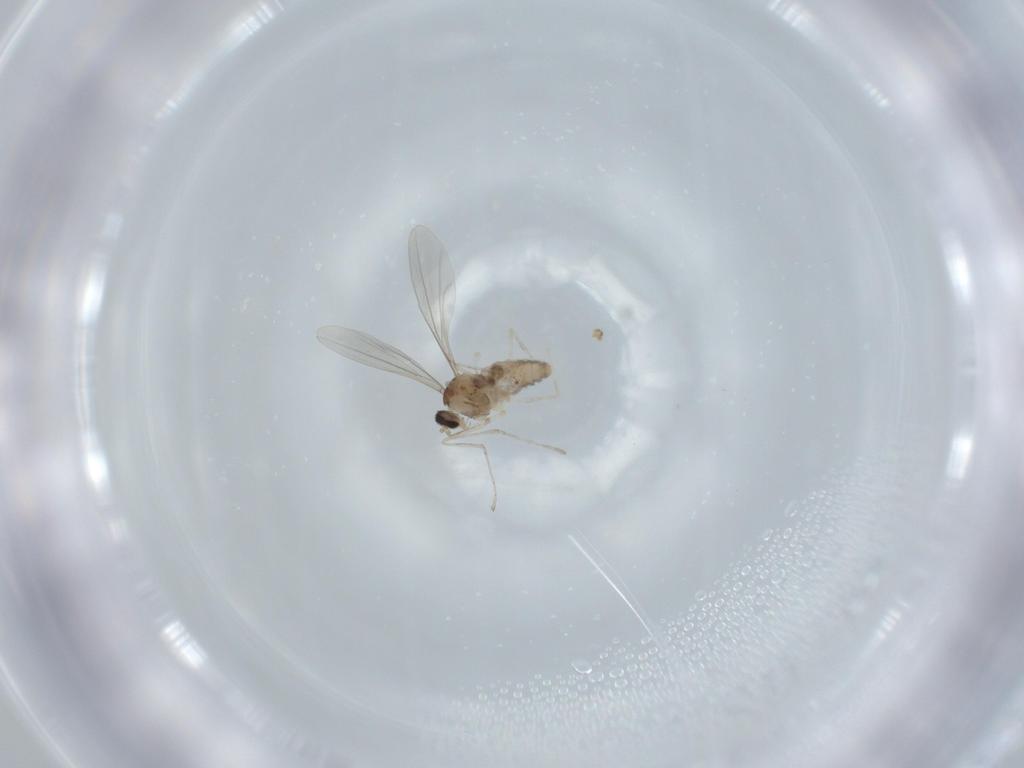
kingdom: Animalia
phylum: Arthropoda
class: Insecta
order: Diptera
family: Cecidomyiidae
